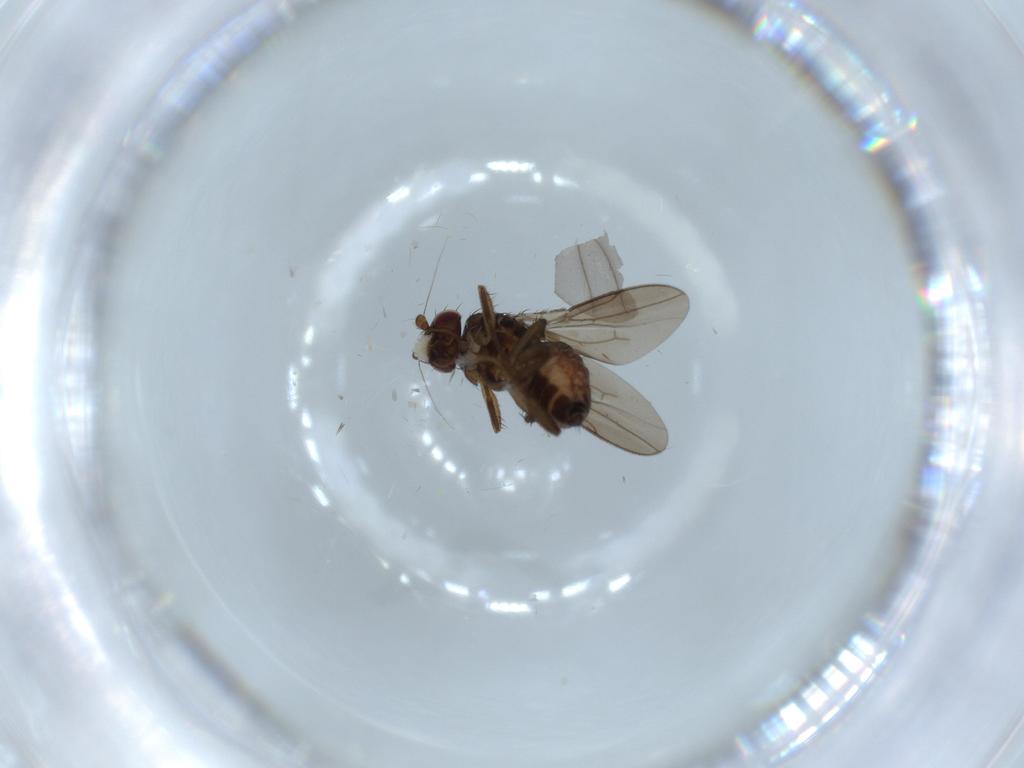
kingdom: Animalia
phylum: Arthropoda
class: Insecta
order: Diptera
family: Sphaeroceridae
